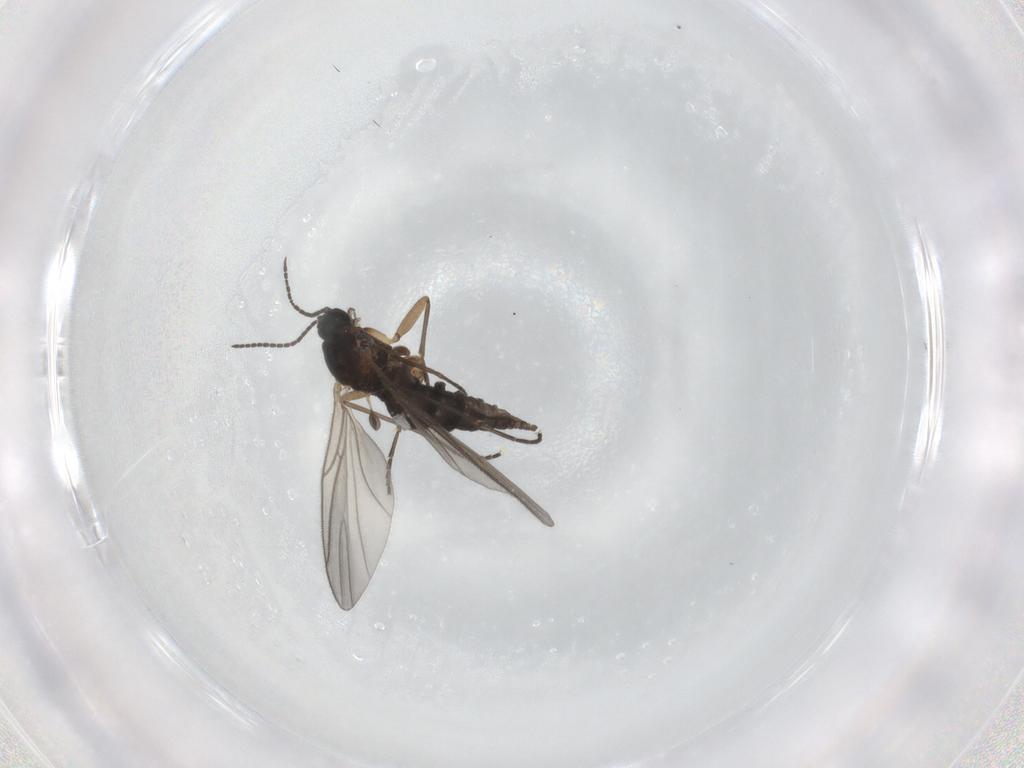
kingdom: Animalia
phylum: Arthropoda
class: Insecta
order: Diptera
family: Sciaridae
